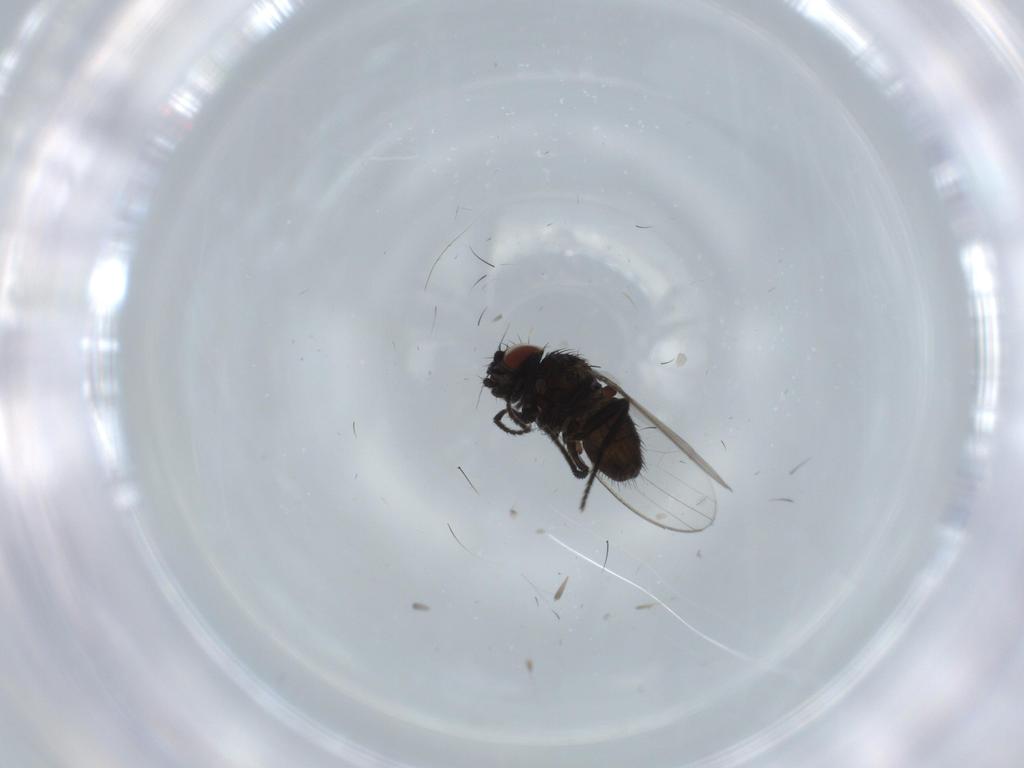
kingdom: Animalia
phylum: Arthropoda
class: Insecta
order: Diptera
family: Milichiidae
